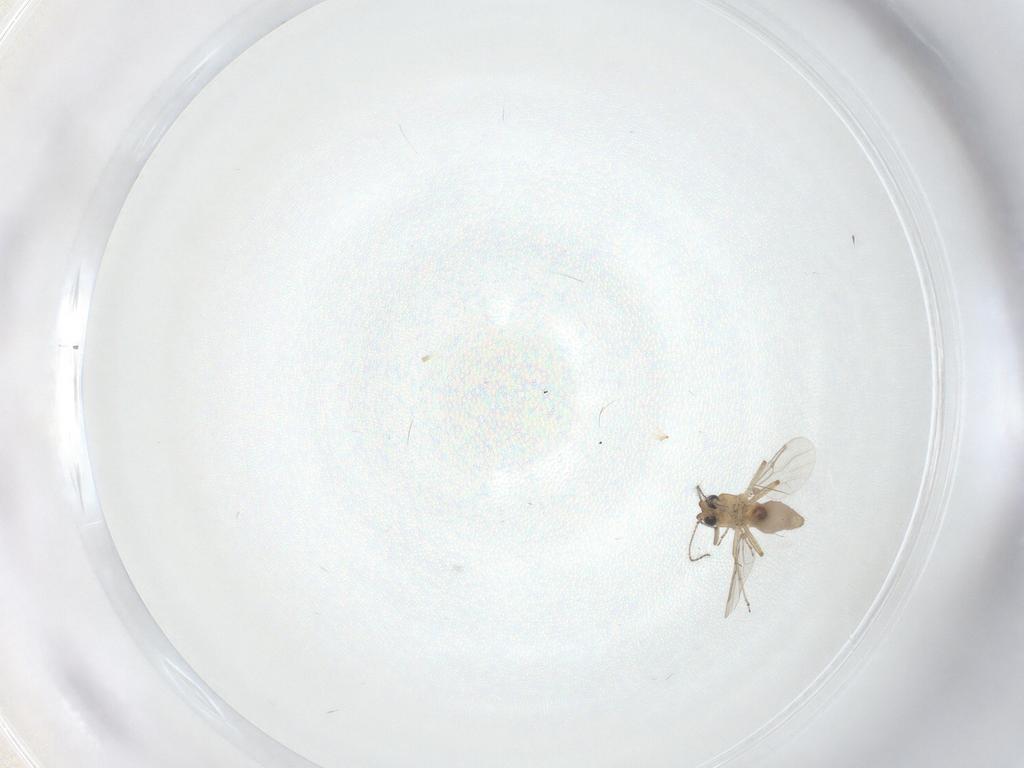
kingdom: Animalia
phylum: Arthropoda
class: Insecta
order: Diptera
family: Ceratopogonidae
